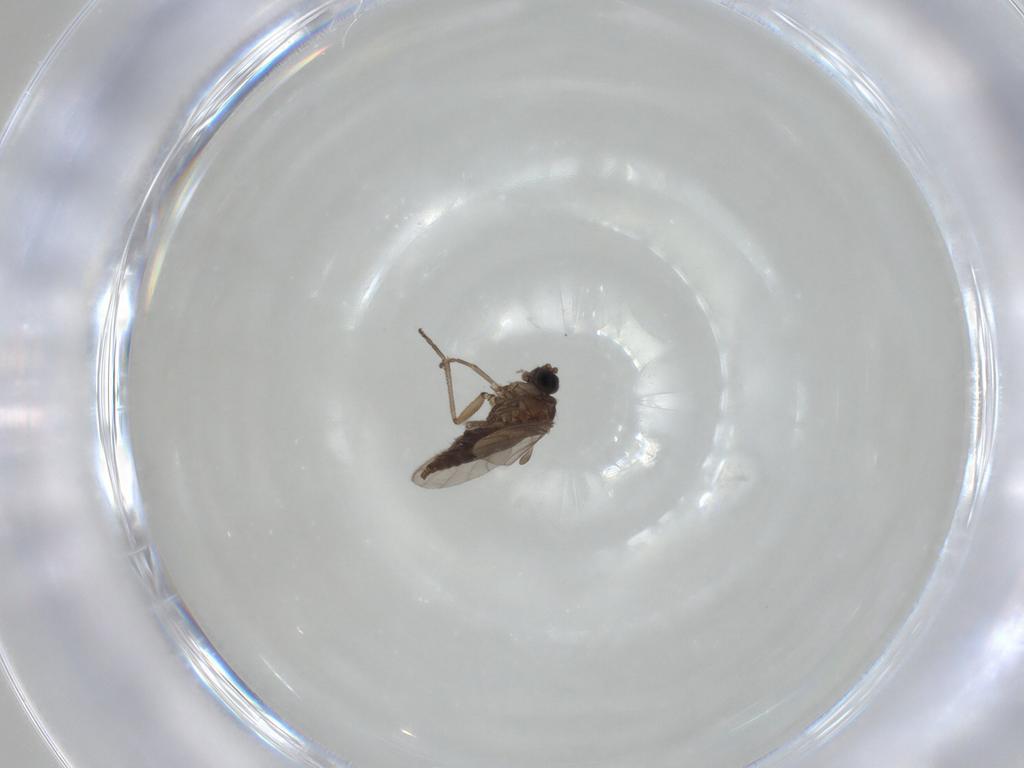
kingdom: Animalia
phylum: Arthropoda
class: Insecta
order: Diptera
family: Sciaridae
